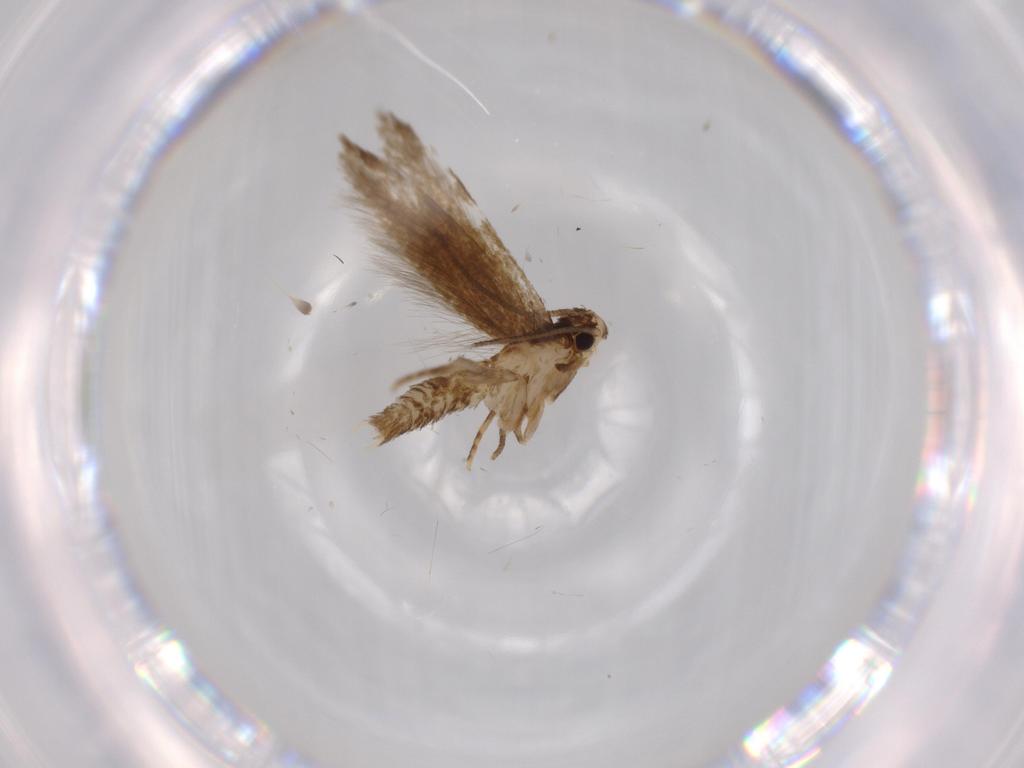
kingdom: Animalia
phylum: Arthropoda
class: Insecta
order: Lepidoptera
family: Tineidae
